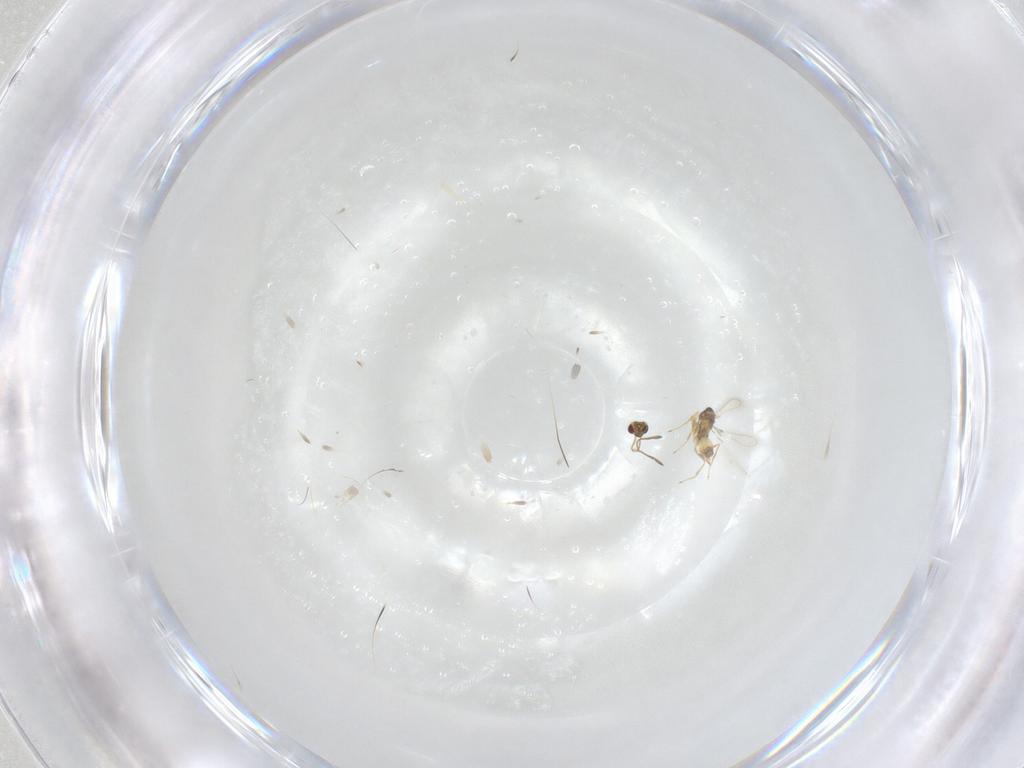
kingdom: Animalia
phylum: Arthropoda
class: Insecta
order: Hymenoptera
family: Mymaridae
